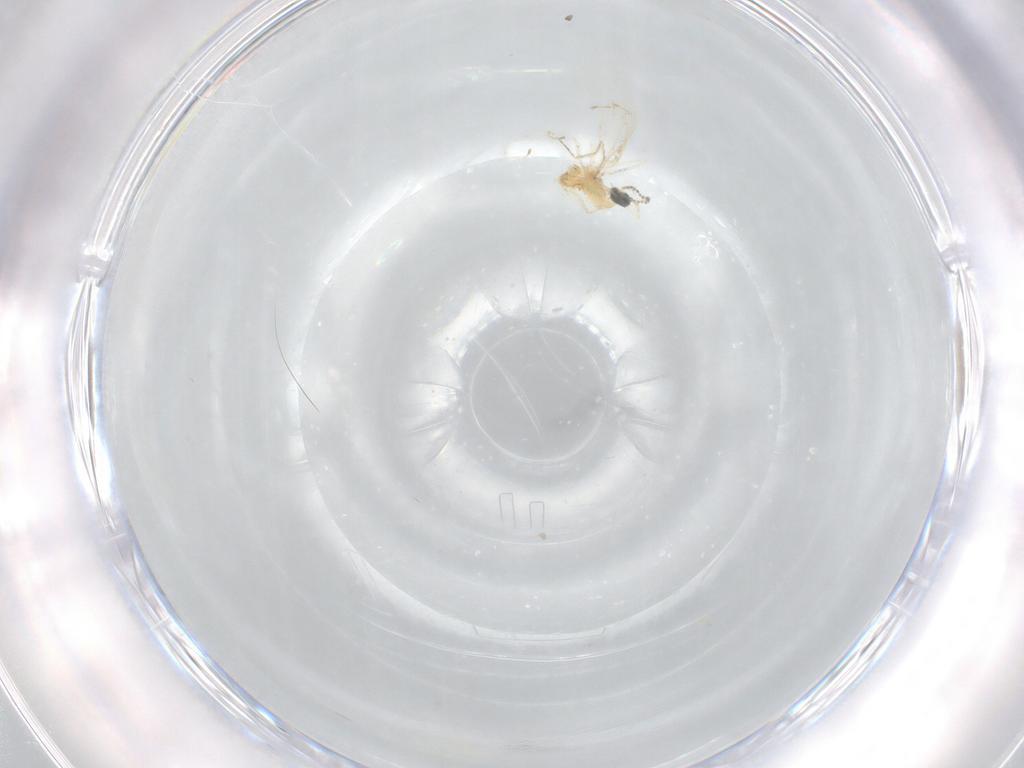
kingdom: Animalia
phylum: Arthropoda
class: Insecta
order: Diptera
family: Cecidomyiidae
